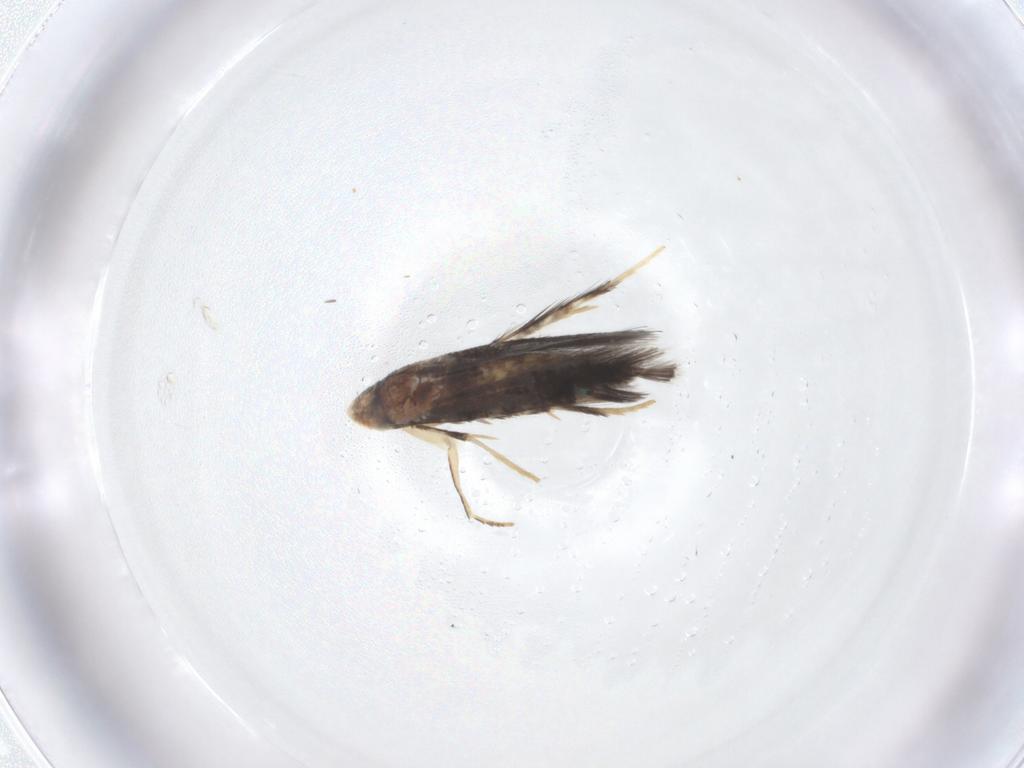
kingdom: Animalia
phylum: Arthropoda
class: Insecta
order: Lepidoptera
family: Nepticulidae
